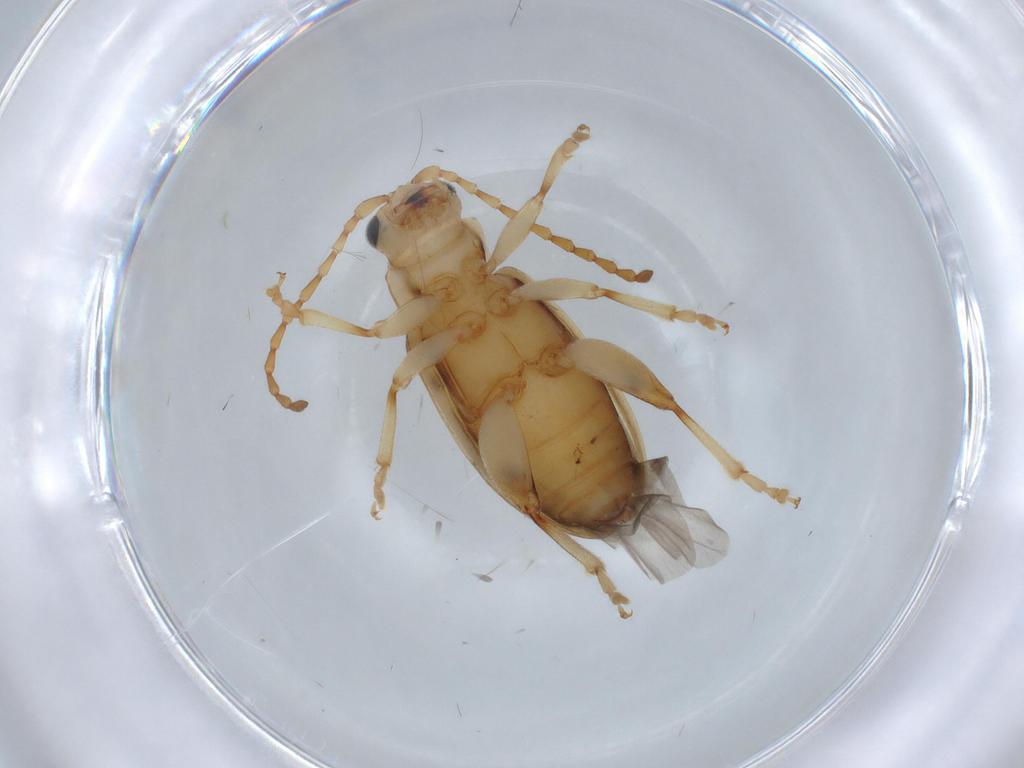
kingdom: Animalia
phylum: Arthropoda
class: Insecta
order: Coleoptera
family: Chrysomelidae
